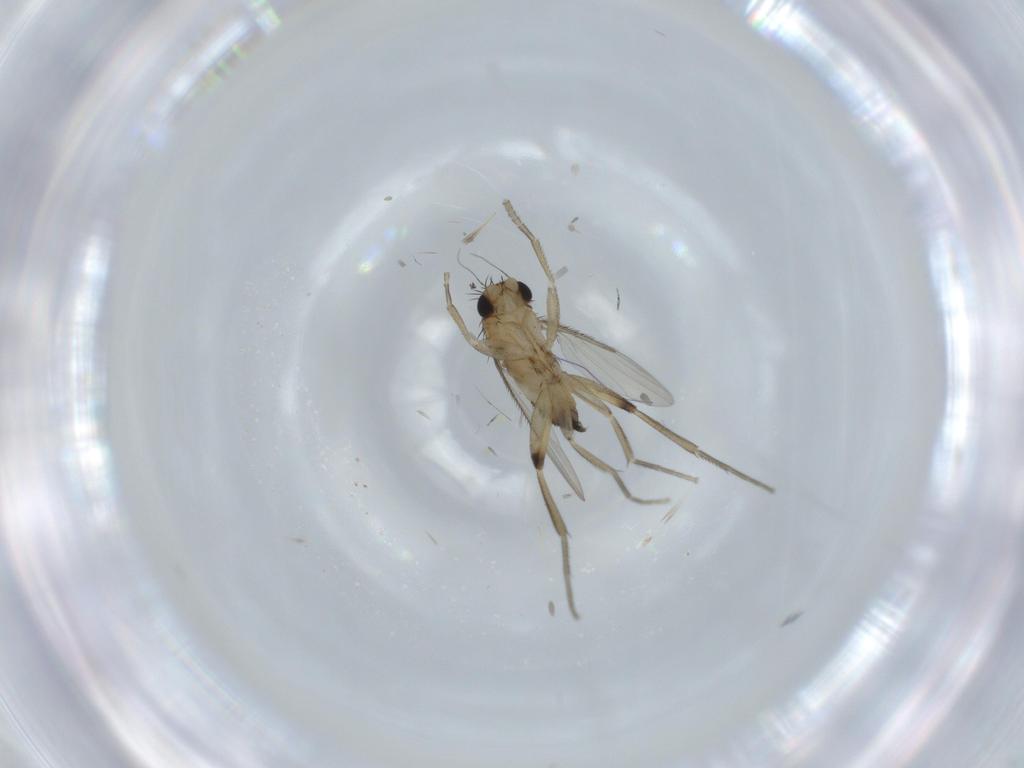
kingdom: Animalia
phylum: Arthropoda
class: Insecta
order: Diptera
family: Phoridae
